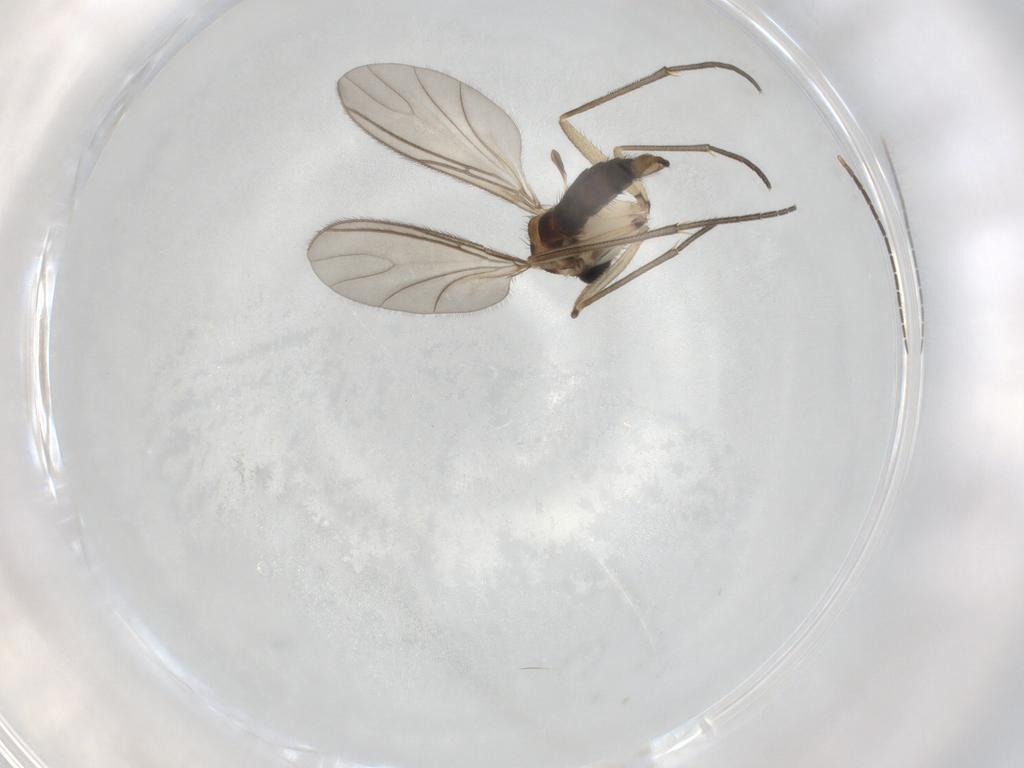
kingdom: Animalia
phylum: Arthropoda
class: Insecta
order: Diptera
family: Sciaridae
